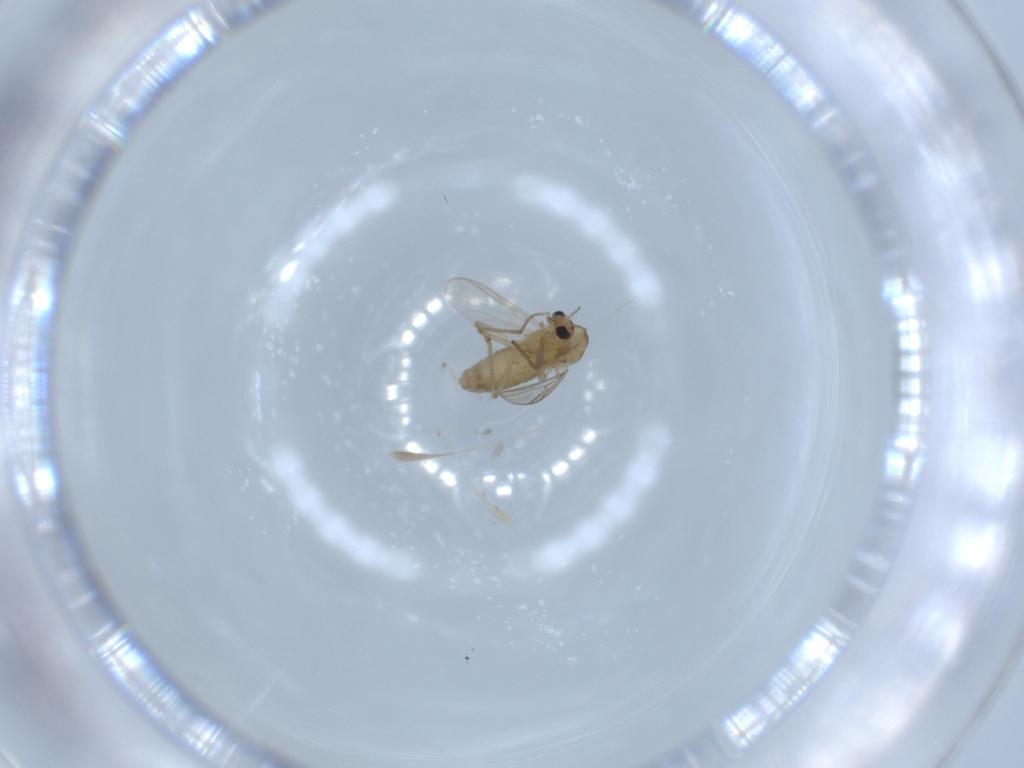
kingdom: Animalia
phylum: Arthropoda
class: Insecta
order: Diptera
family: Chironomidae
